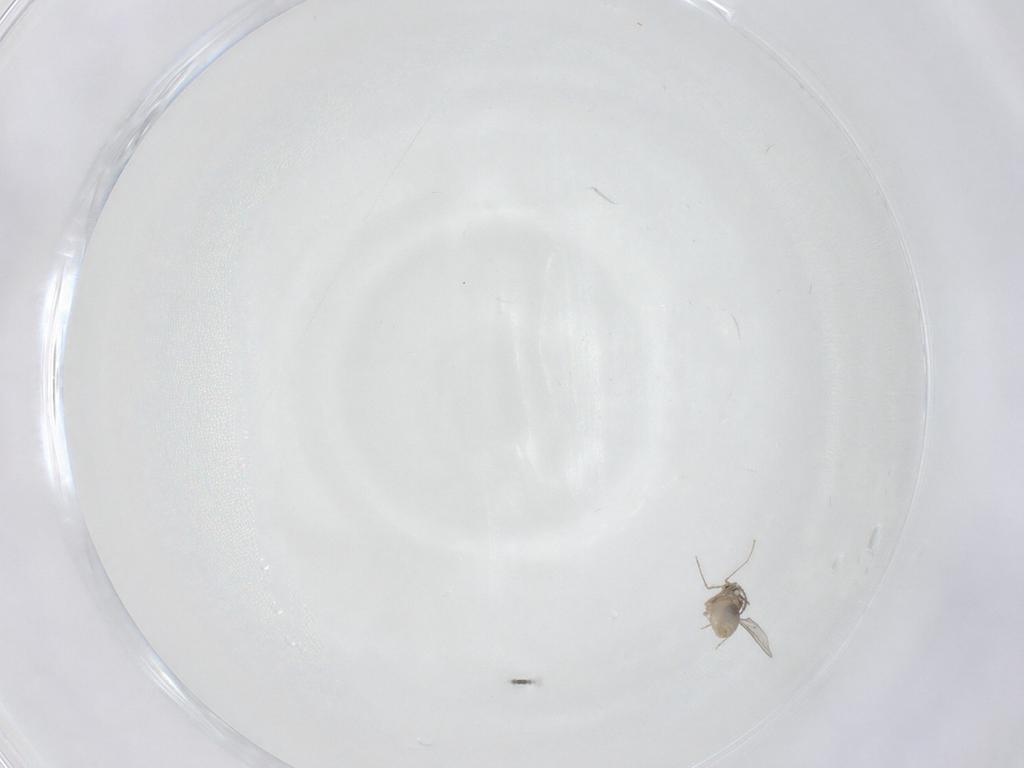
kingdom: Animalia
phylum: Arthropoda
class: Insecta
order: Diptera
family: Cecidomyiidae
